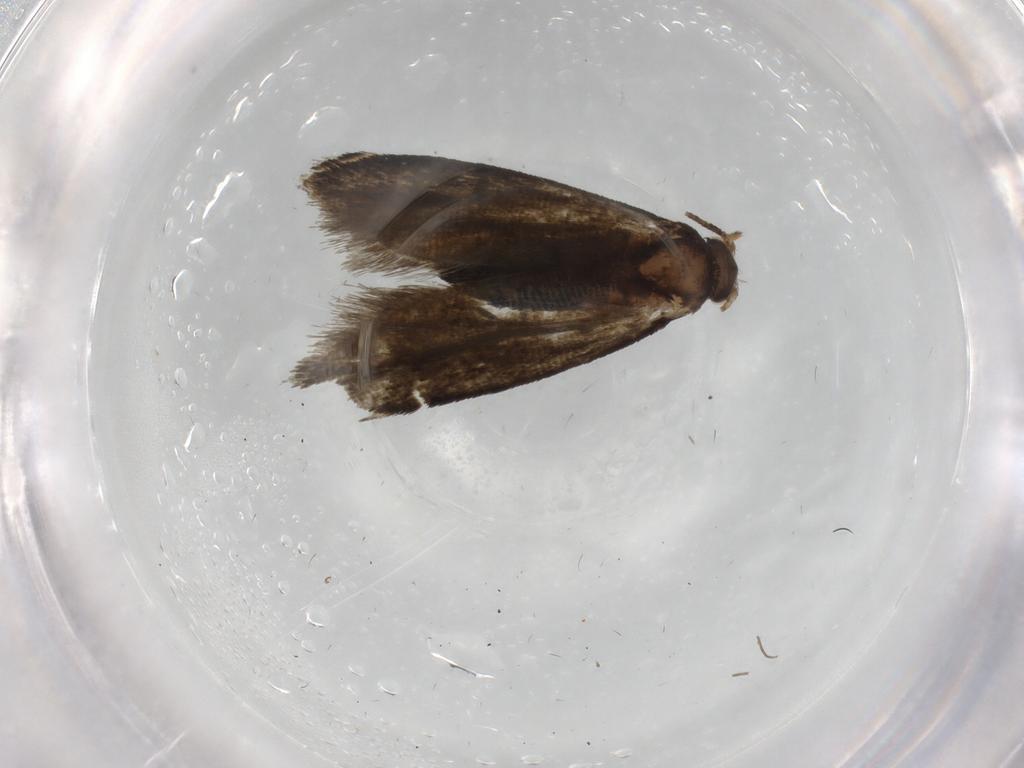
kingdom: Animalia
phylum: Arthropoda
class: Insecta
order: Lepidoptera
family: Crambidae
